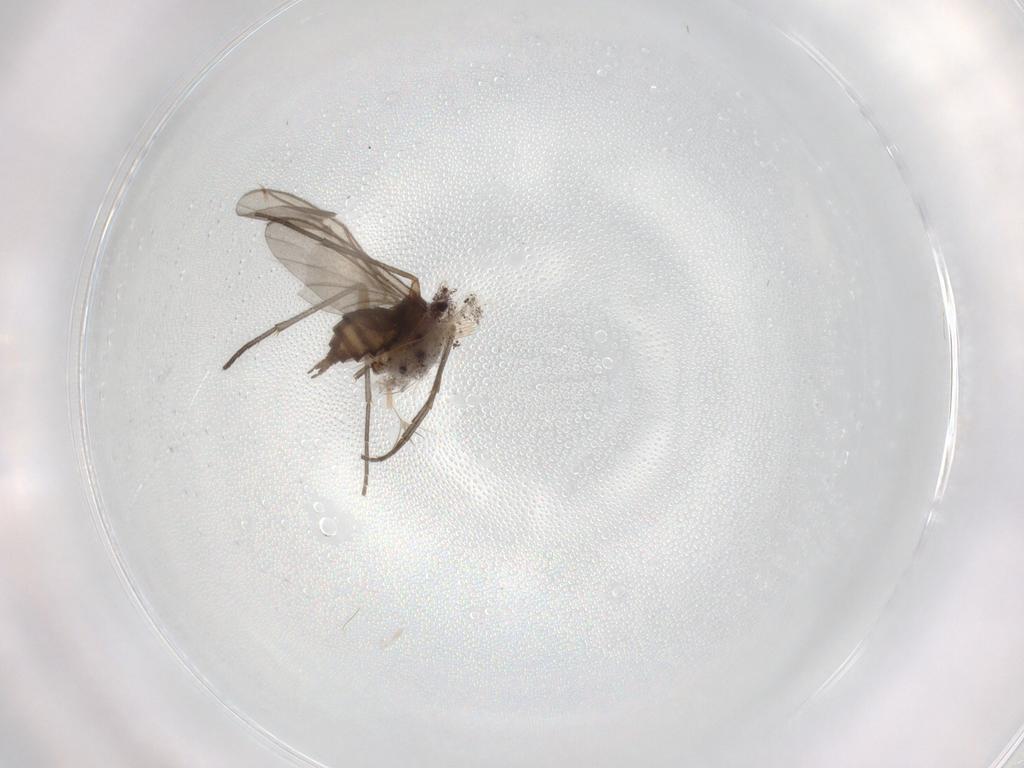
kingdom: Animalia
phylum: Arthropoda
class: Insecta
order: Diptera
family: Sciaridae
